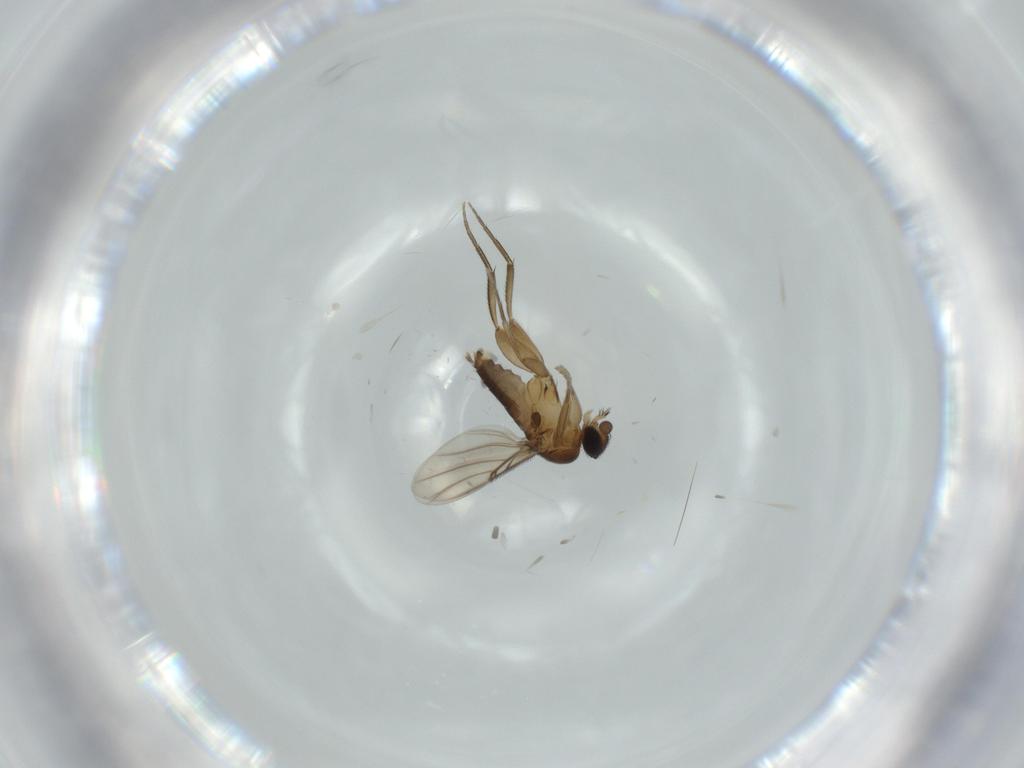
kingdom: Animalia
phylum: Arthropoda
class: Insecta
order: Diptera
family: Phoridae
